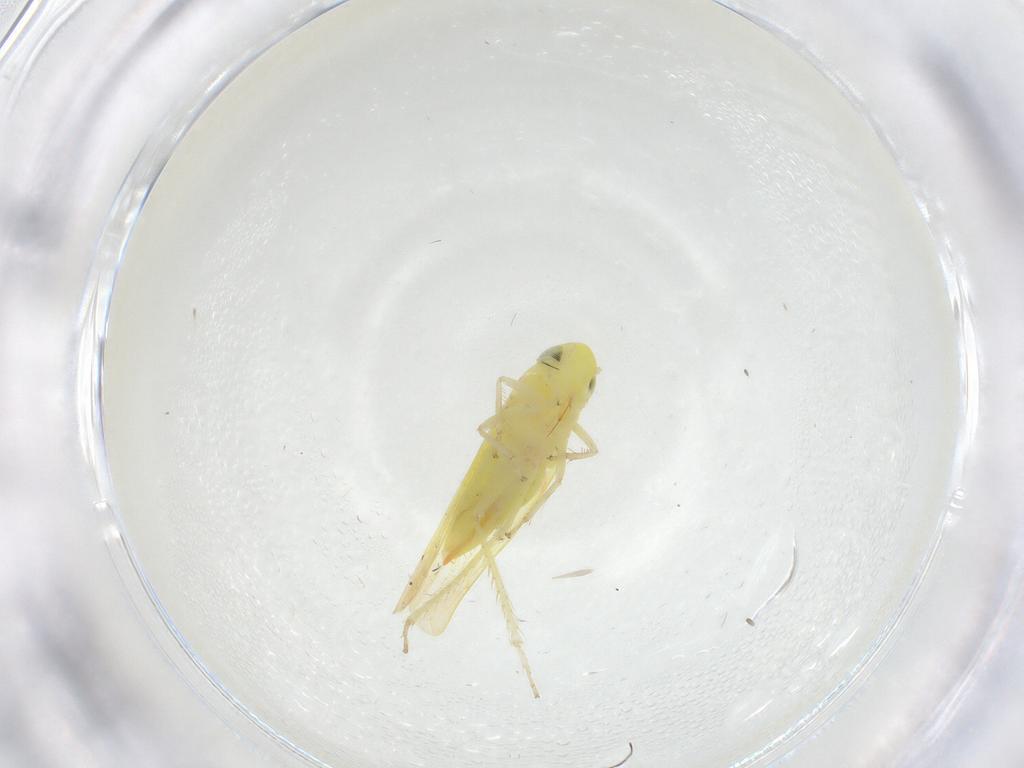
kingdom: Animalia
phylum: Arthropoda
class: Insecta
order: Hemiptera
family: Cicadellidae
